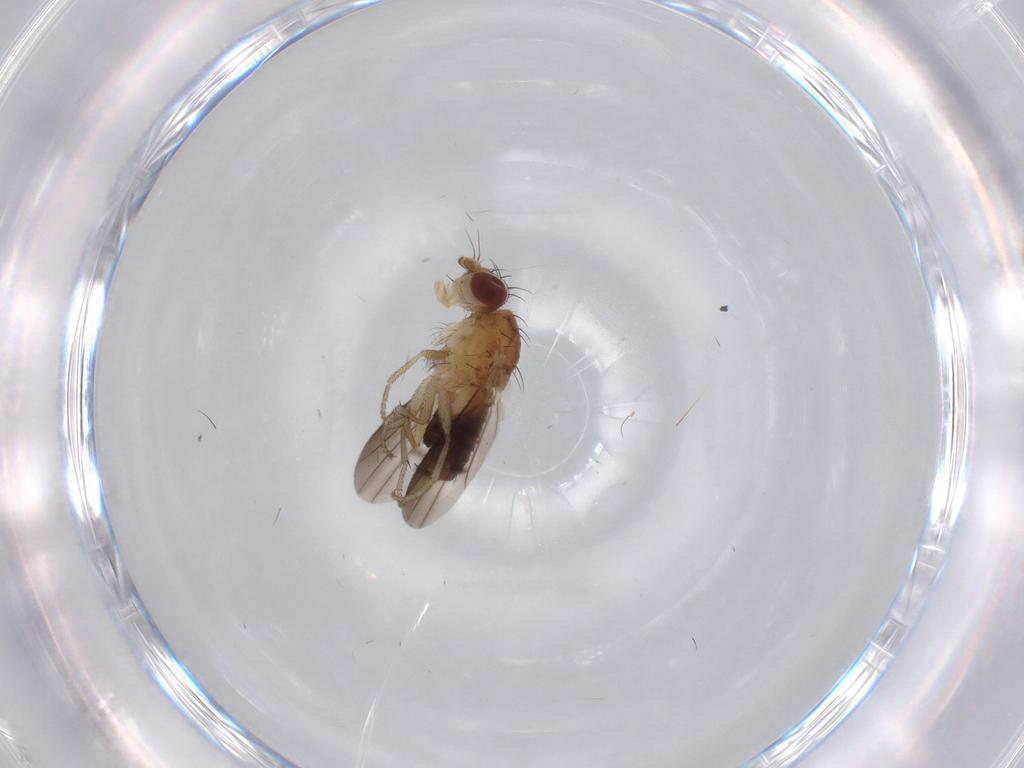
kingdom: Animalia
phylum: Arthropoda
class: Insecta
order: Diptera
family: Heleomyzidae
